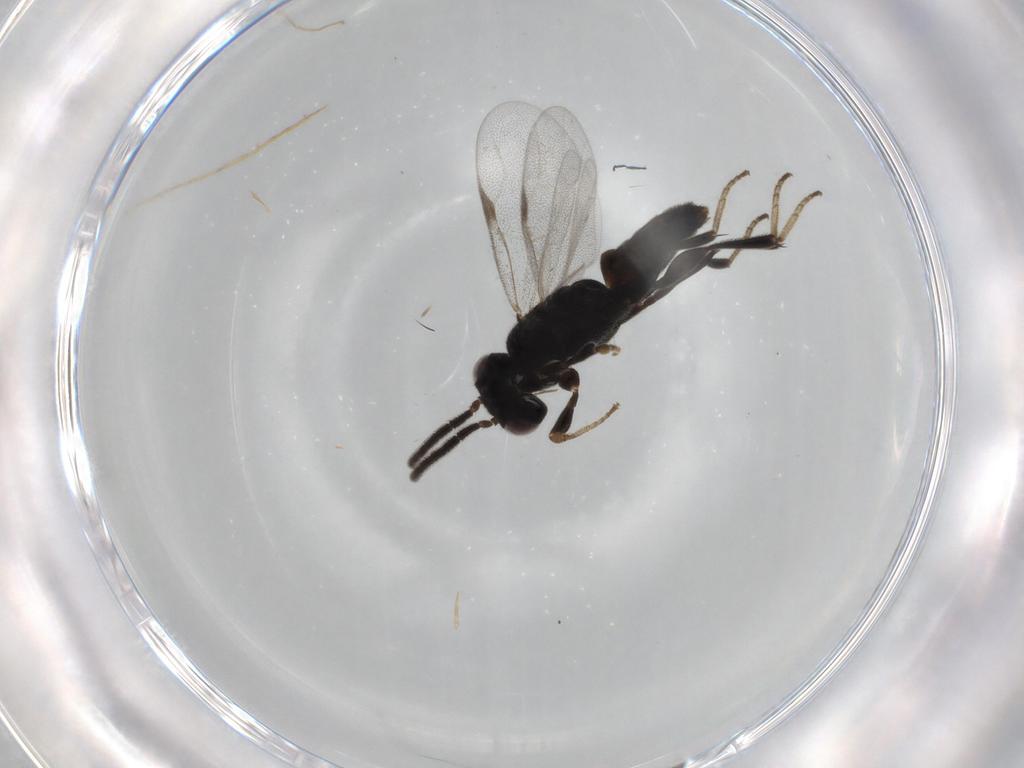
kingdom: Animalia
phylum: Arthropoda
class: Insecta
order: Hymenoptera
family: Dryinidae
